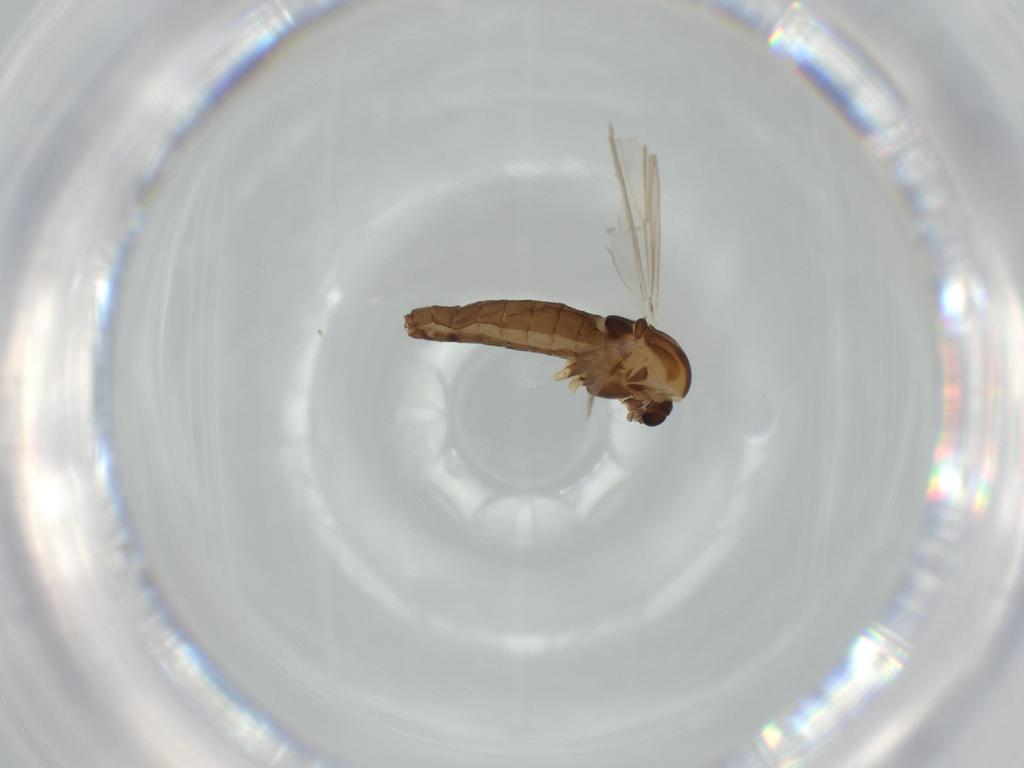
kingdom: Animalia
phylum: Arthropoda
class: Insecta
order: Diptera
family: Chironomidae
